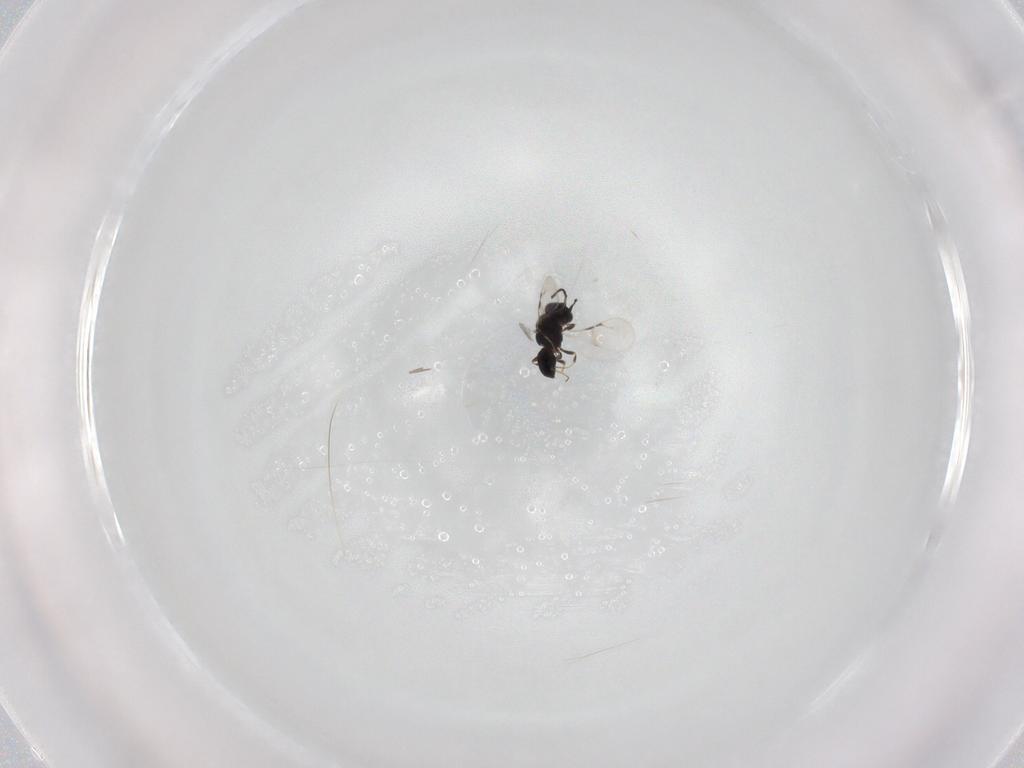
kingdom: Animalia
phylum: Arthropoda
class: Insecta
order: Hymenoptera
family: Ceraphronidae
